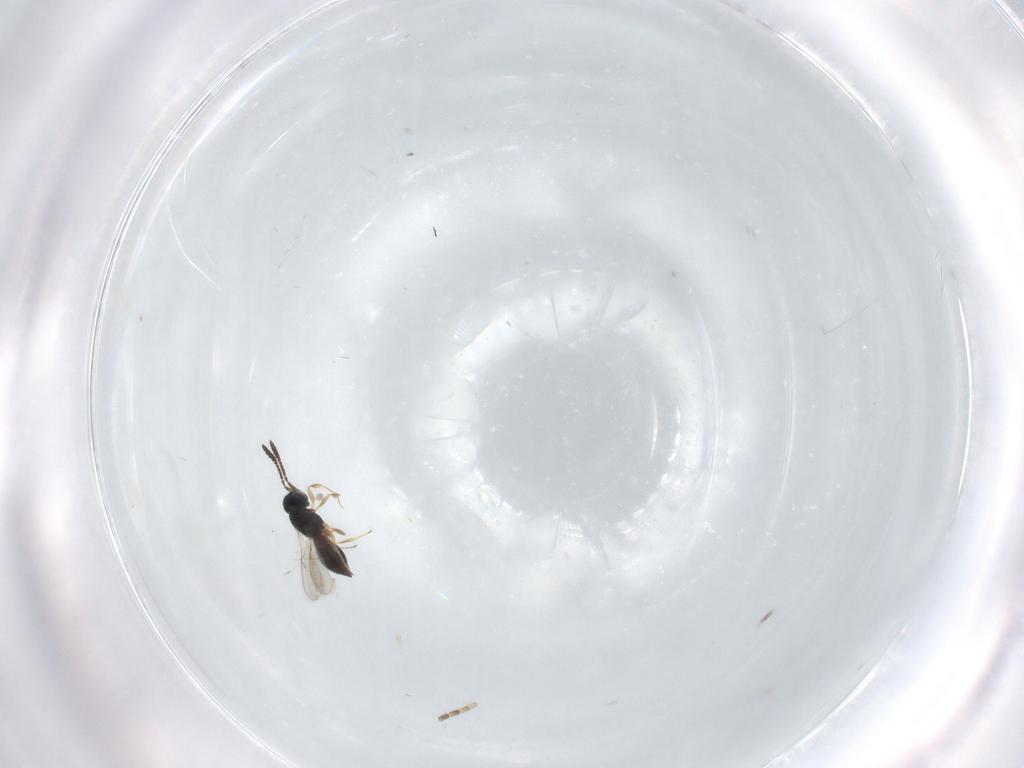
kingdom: Animalia
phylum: Arthropoda
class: Insecta
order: Hymenoptera
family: Scelionidae
